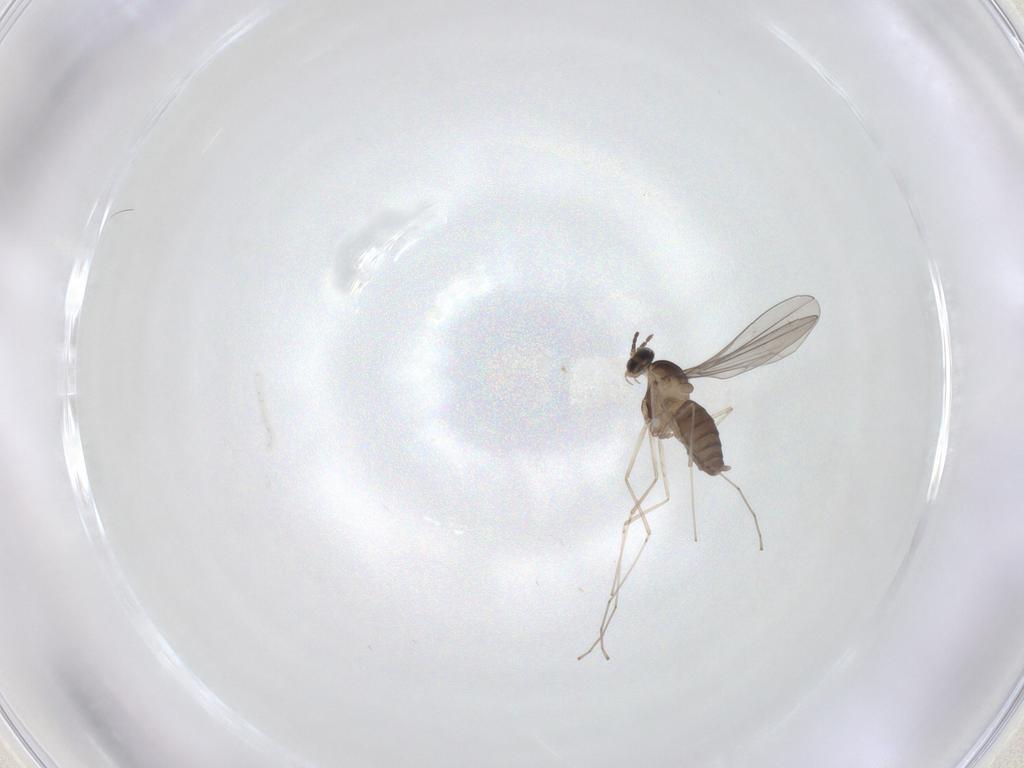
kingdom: Animalia
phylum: Arthropoda
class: Insecta
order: Diptera
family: Cecidomyiidae
